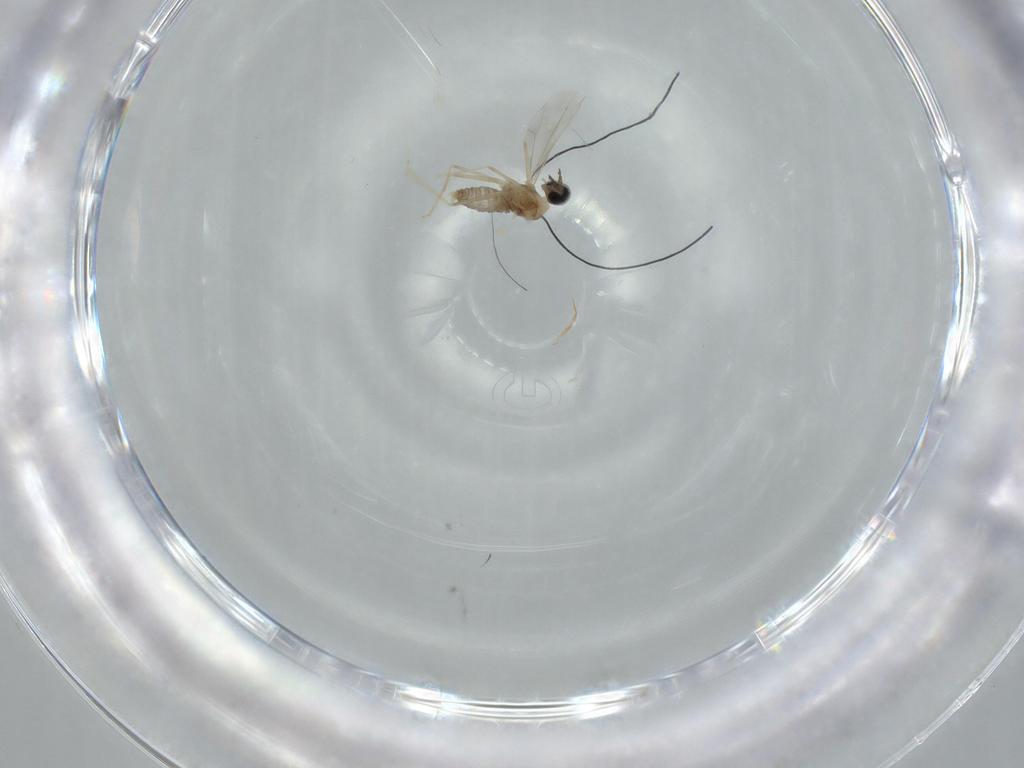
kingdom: Animalia
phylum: Arthropoda
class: Insecta
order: Diptera
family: Cecidomyiidae
